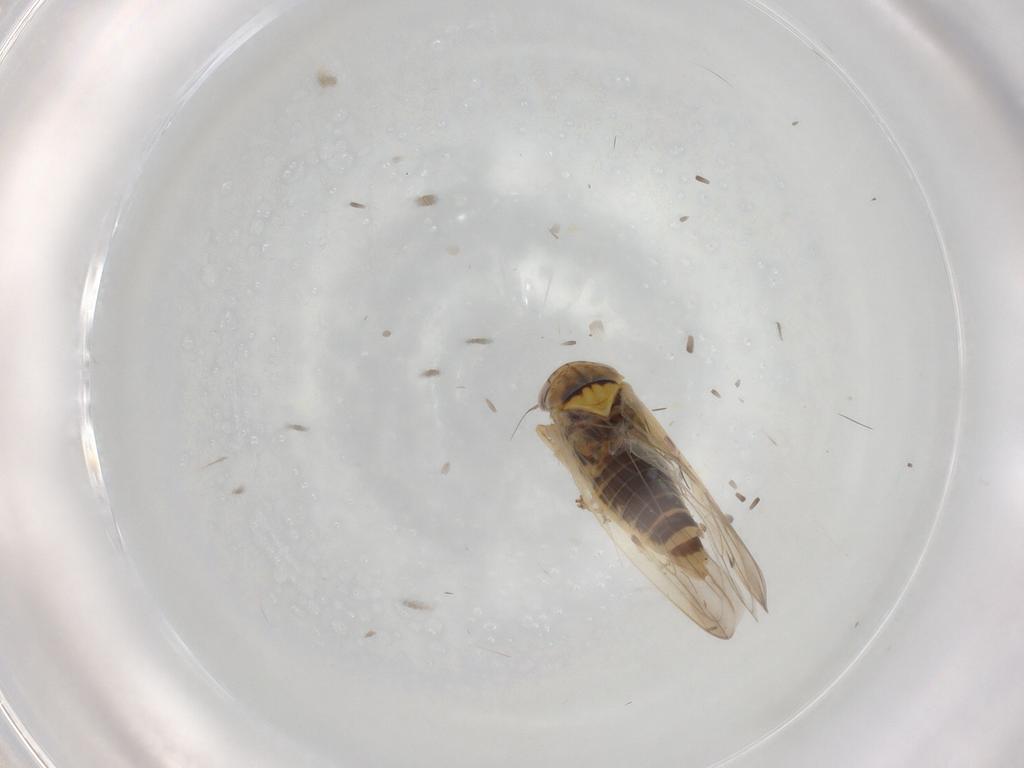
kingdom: Animalia
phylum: Arthropoda
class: Insecta
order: Hemiptera
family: Cicadellidae
